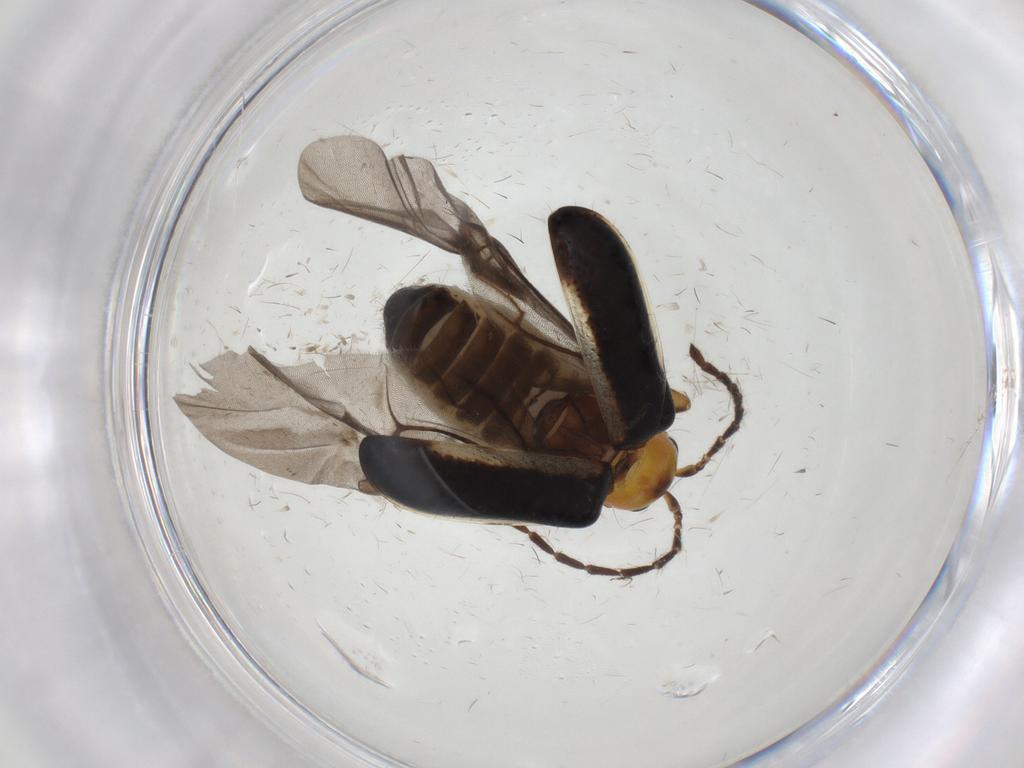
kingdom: Animalia
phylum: Arthropoda
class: Insecta
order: Coleoptera
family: Chrysomelidae
